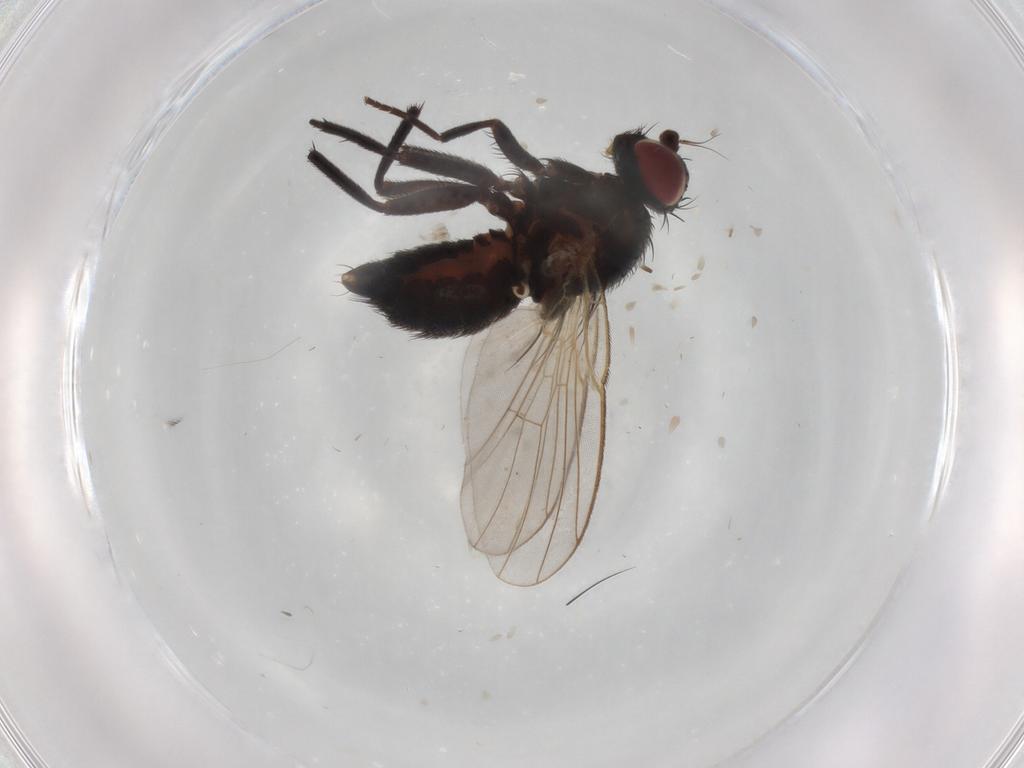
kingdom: Animalia
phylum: Arthropoda
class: Insecta
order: Diptera
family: Agromyzidae
